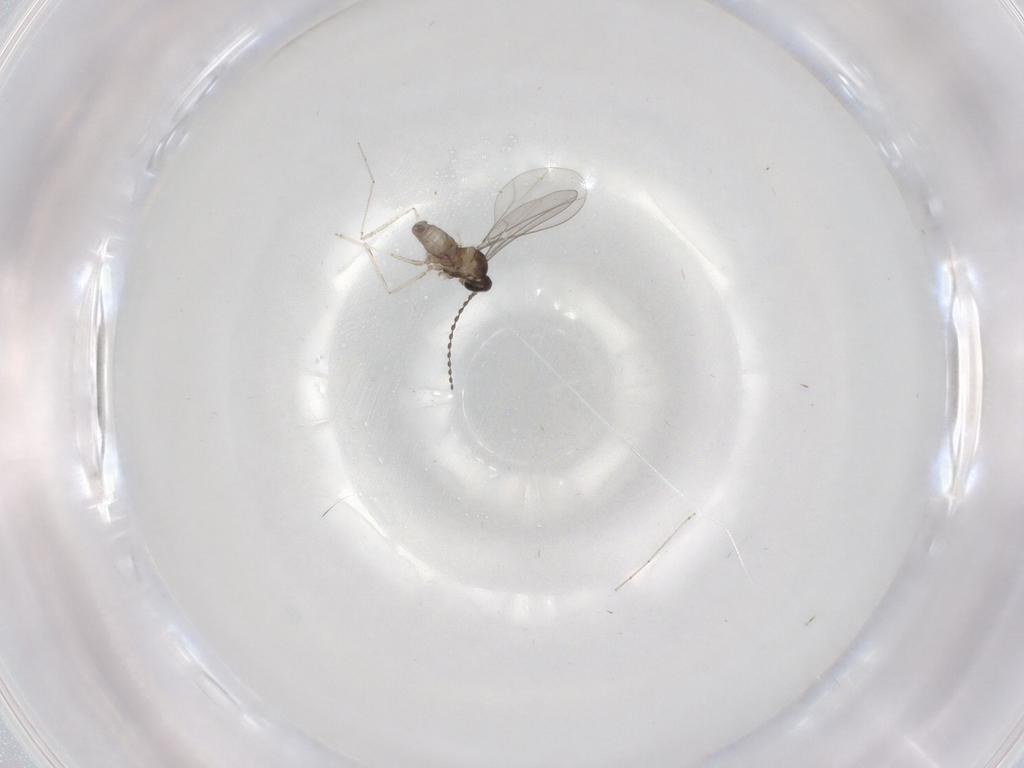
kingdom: Animalia
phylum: Arthropoda
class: Insecta
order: Diptera
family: Cecidomyiidae
